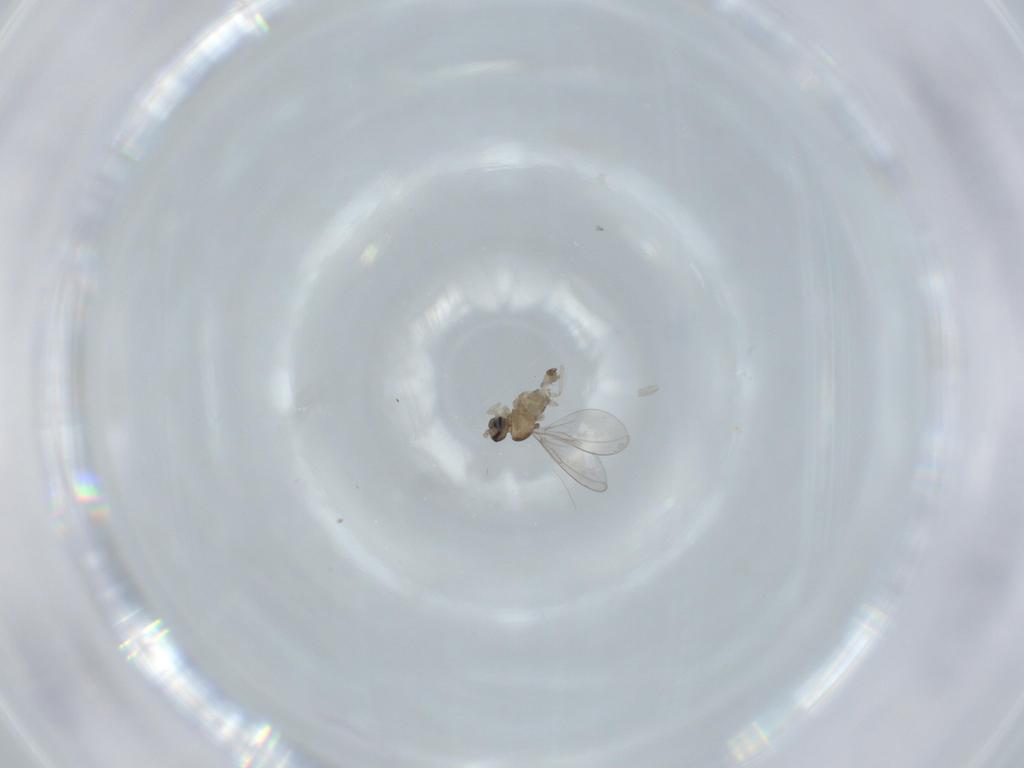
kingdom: Animalia
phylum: Arthropoda
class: Insecta
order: Diptera
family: Cecidomyiidae
